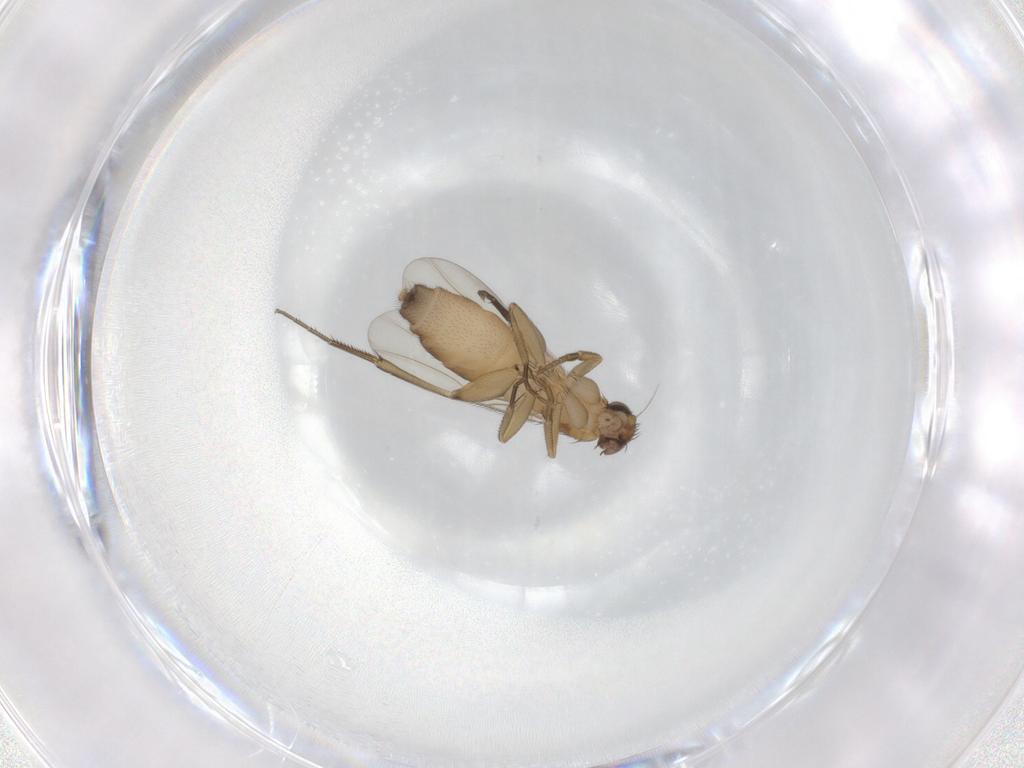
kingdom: Animalia
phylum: Arthropoda
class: Insecta
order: Diptera
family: Phoridae
